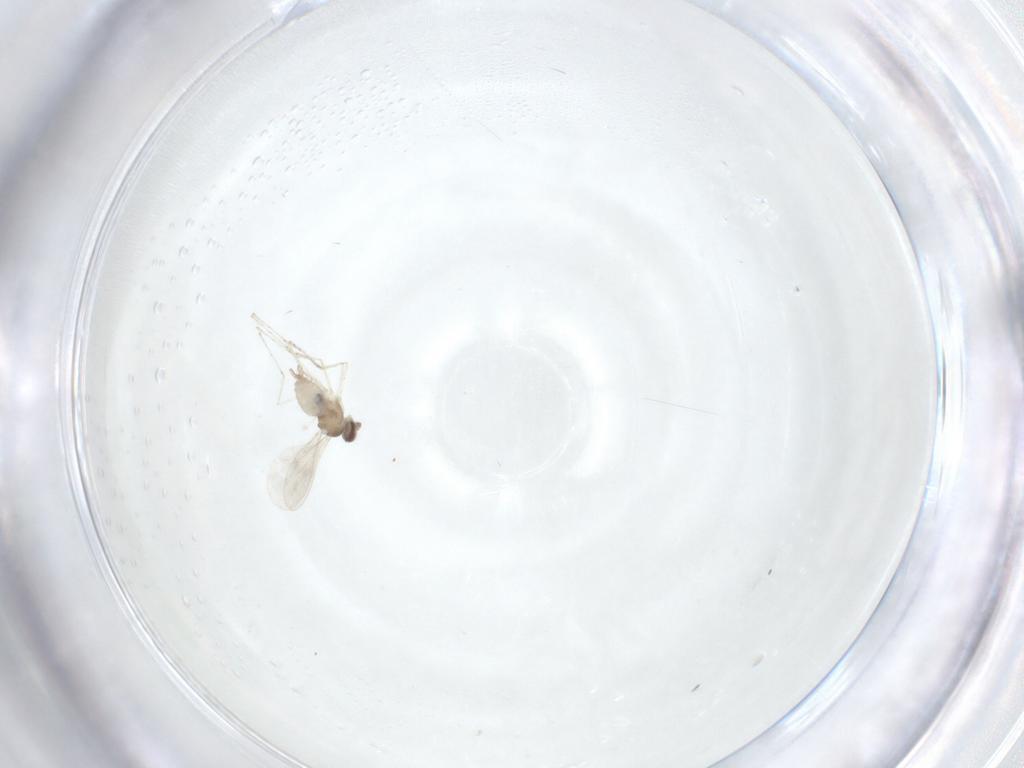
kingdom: Animalia
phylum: Arthropoda
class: Insecta
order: Diptera
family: Cecidomyiidae
